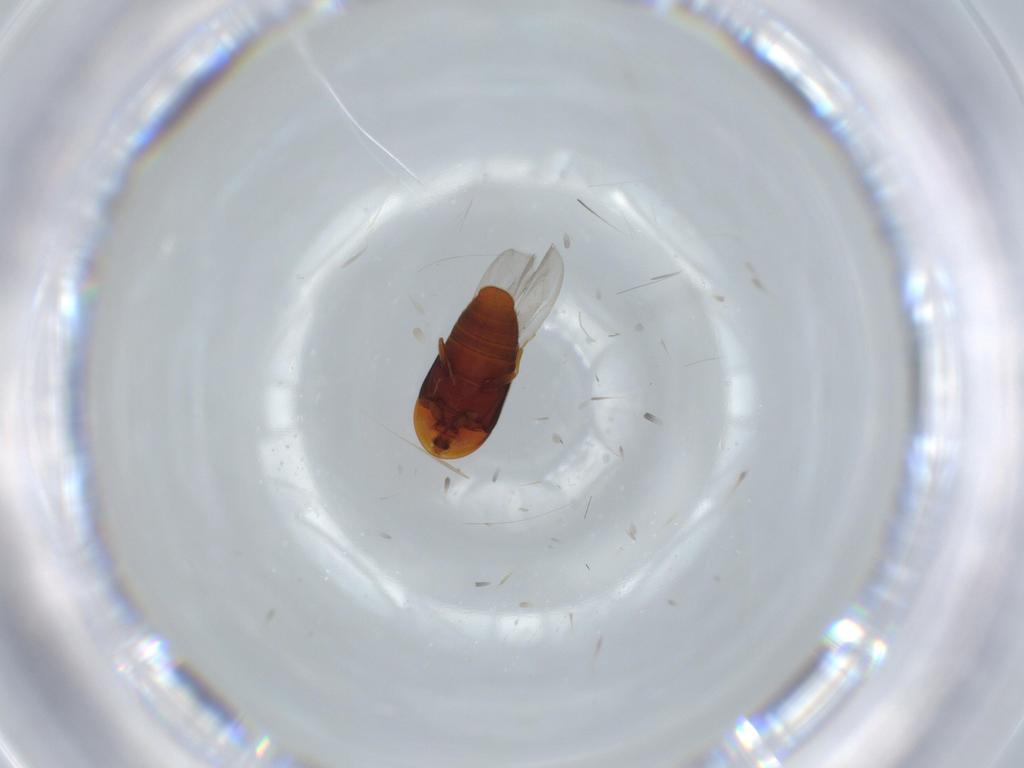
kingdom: Animalia
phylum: Arthropoda
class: Insecta
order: Coleoptera
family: Corylophidae
